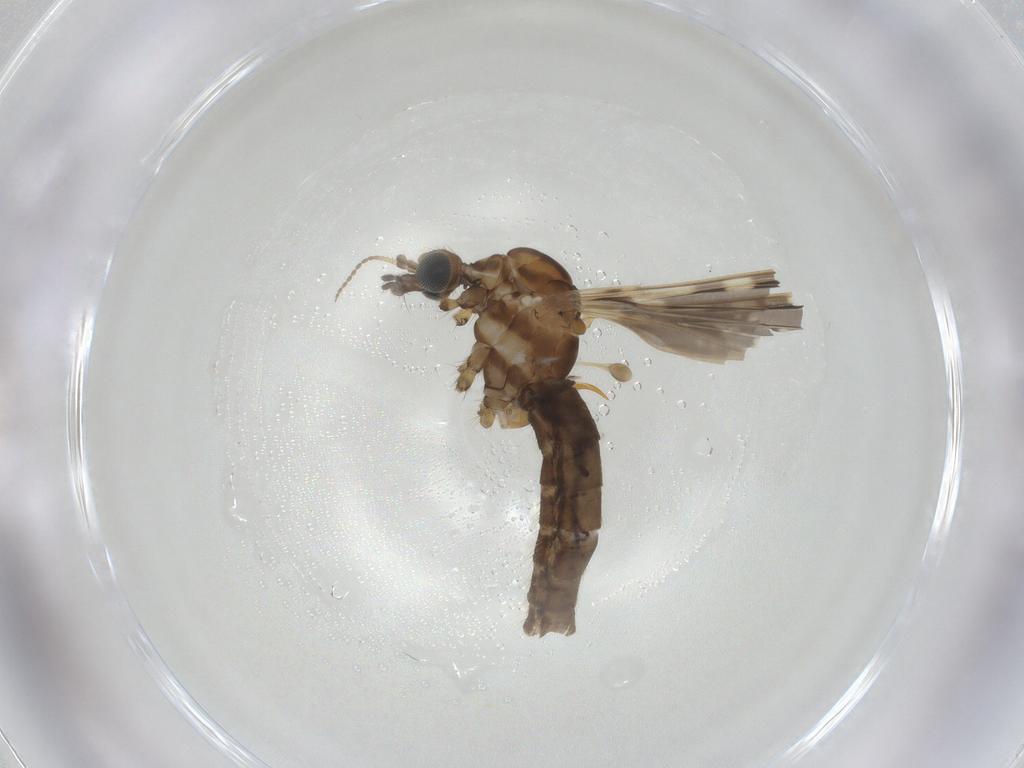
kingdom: Animalia
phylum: Arthropoda
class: Insecta
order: Diptera
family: Limoniidae
